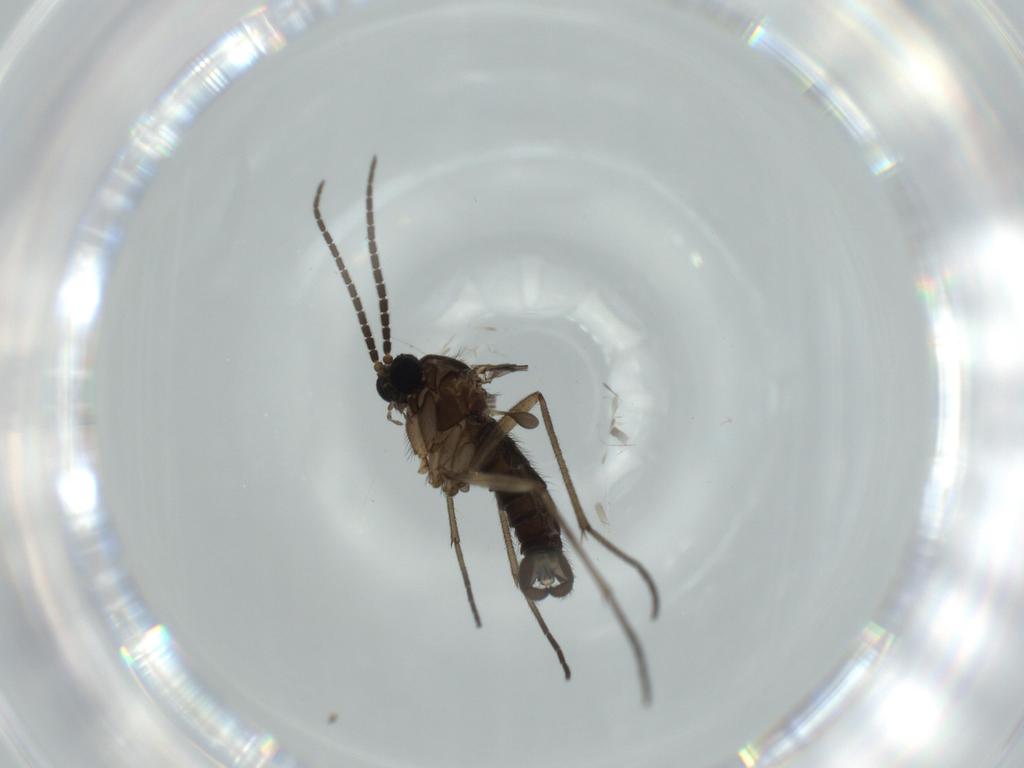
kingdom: Animalia
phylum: Arthropoda
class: Insecta
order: Diptera
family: Sciaridae
